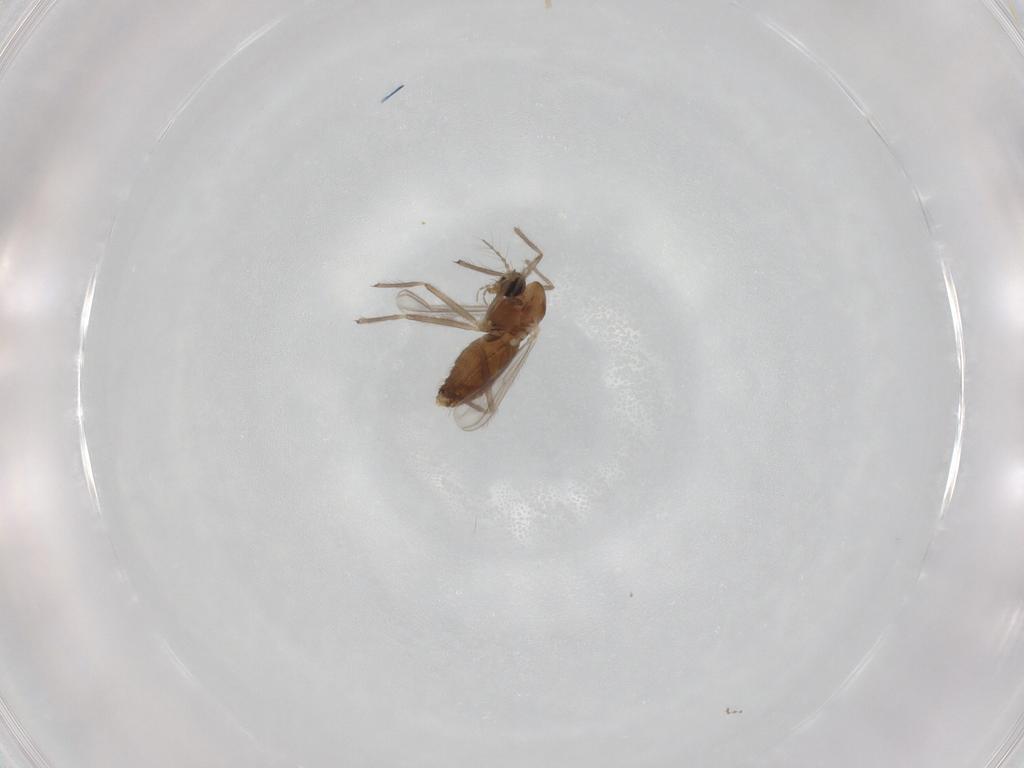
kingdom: Animalia
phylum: Arthropoda
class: Insecta
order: Diptera
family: Chironomidae
